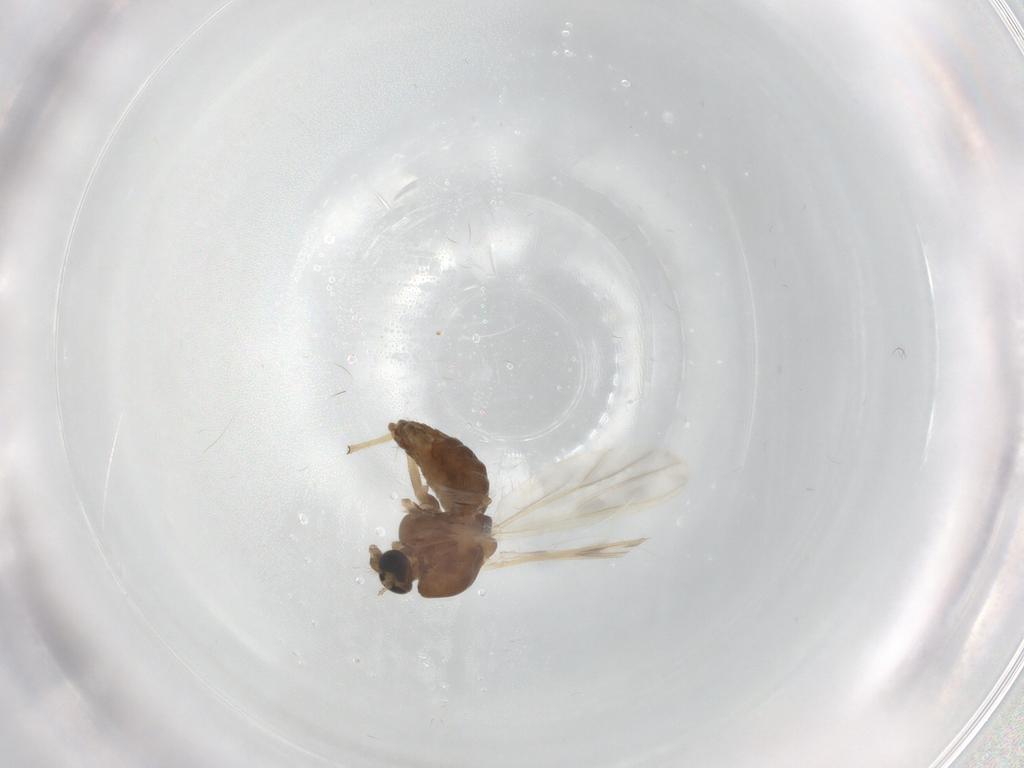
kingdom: Animalia
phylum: Arthropoda
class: Insecta
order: Diptera
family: Chironomidae
